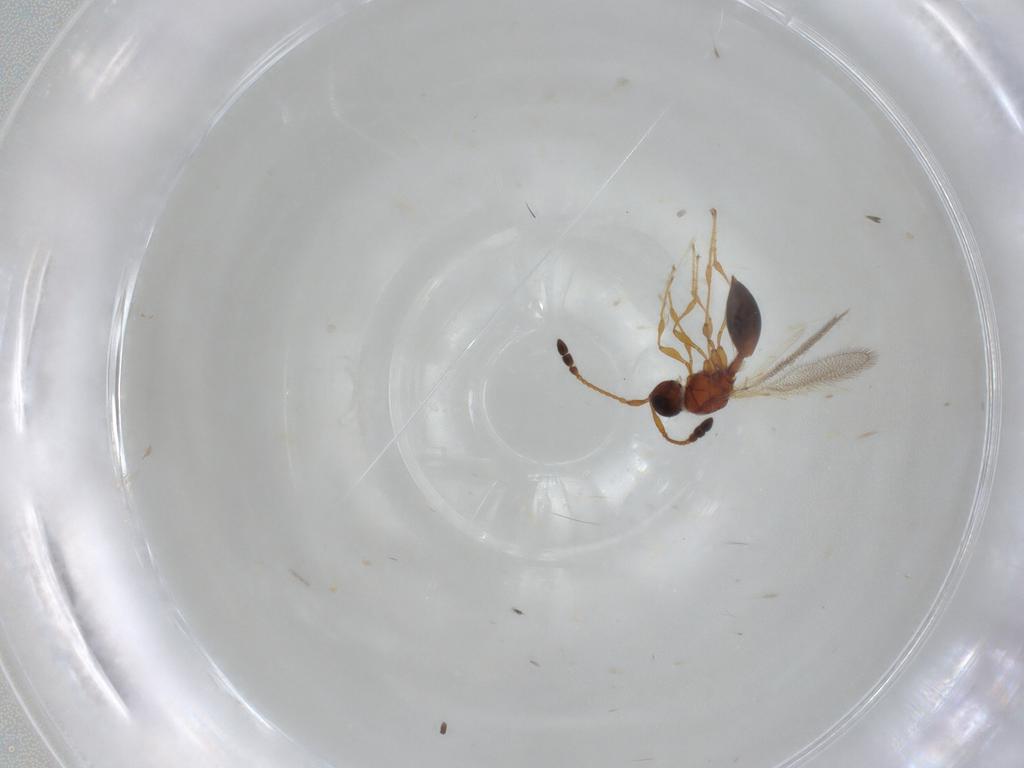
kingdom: Animalia
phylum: Arthropoda
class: Insecta
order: Hymenoptera
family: Diapriidae
